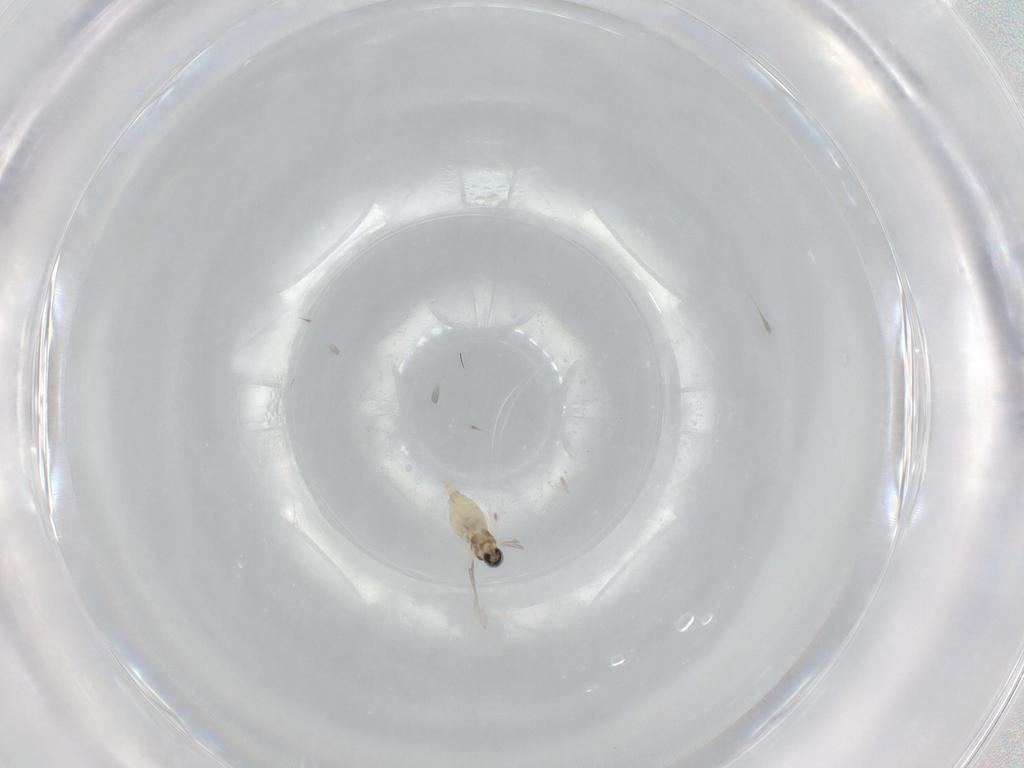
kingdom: Animalia
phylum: Arthropoda
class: Insecta
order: Diptera
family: Cecidomyiidae
